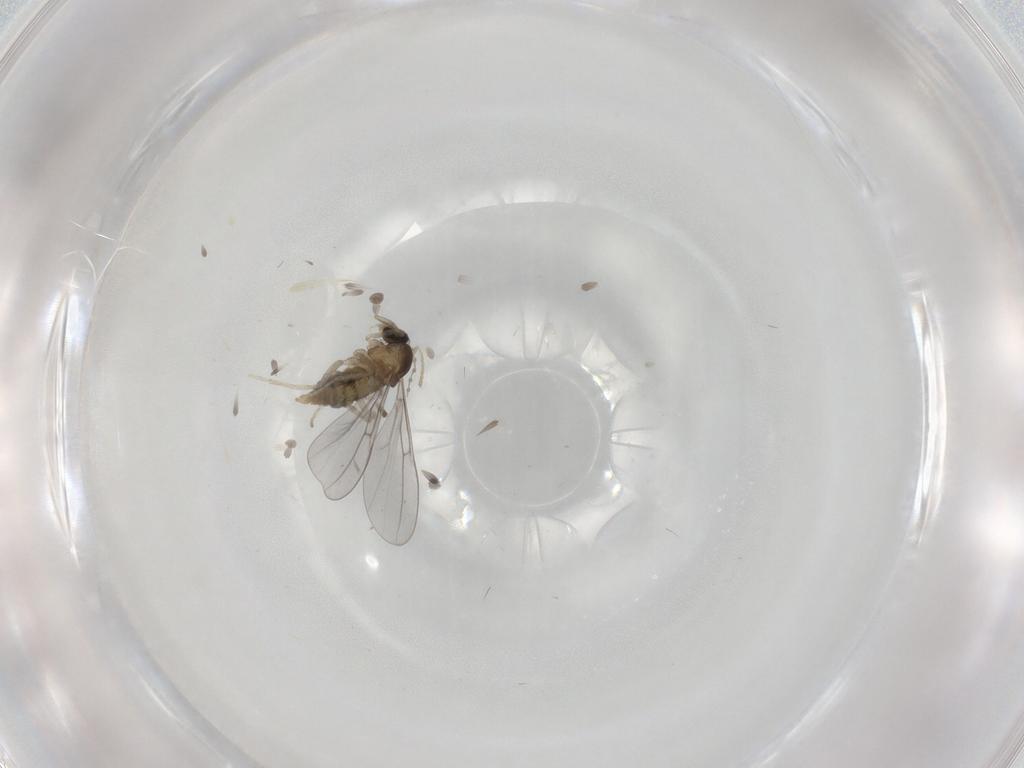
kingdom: Animalia
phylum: Arthropoda
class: Insecta
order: Diptera
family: Cecidomyiidae
